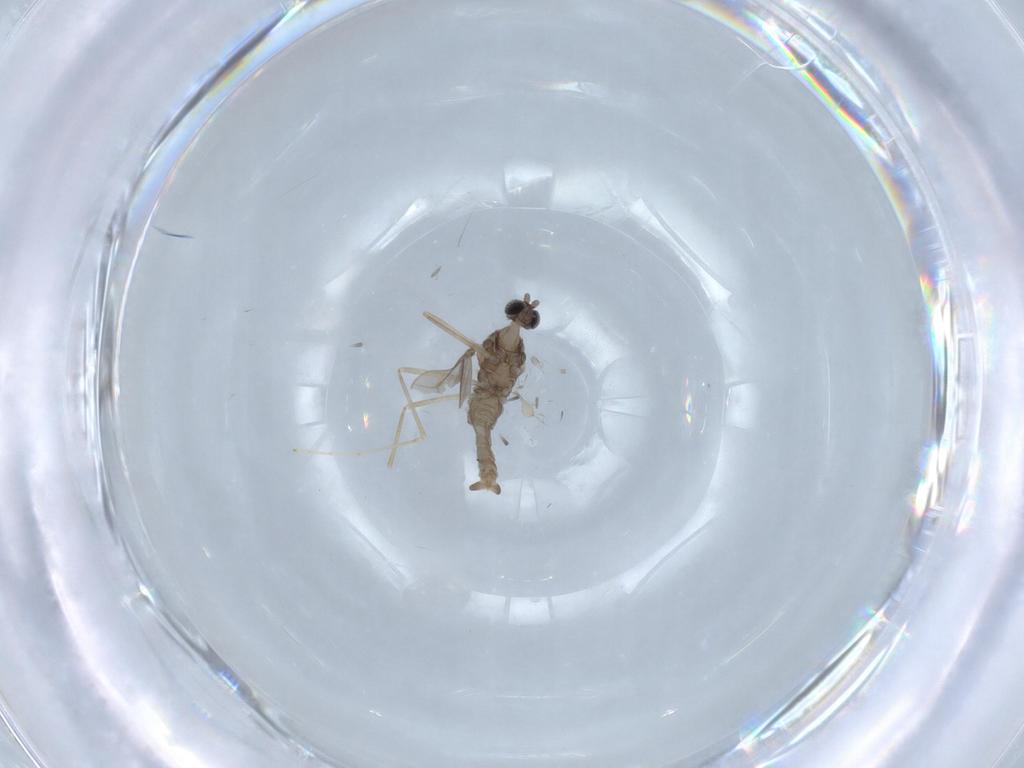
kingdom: Animalia
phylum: Arthropoda
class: Insecta
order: Diptera
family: Cecidomyiidae
